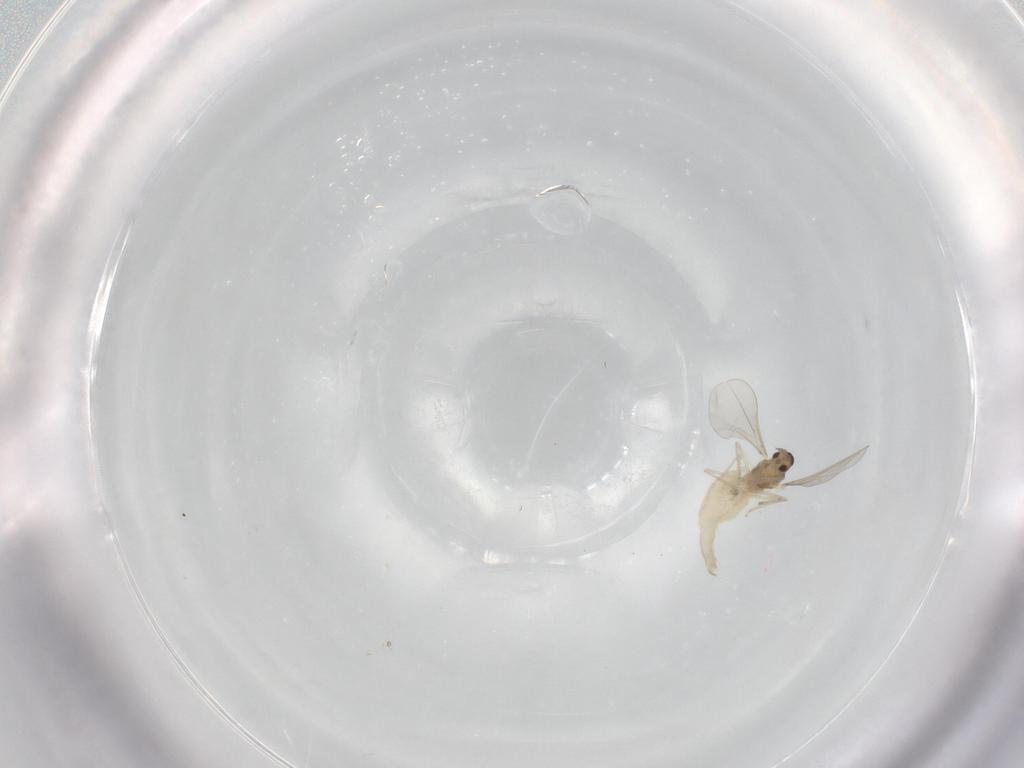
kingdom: Animalia
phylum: Arthropoda
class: Insecta
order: Diptera
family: Cecidomyiidae
